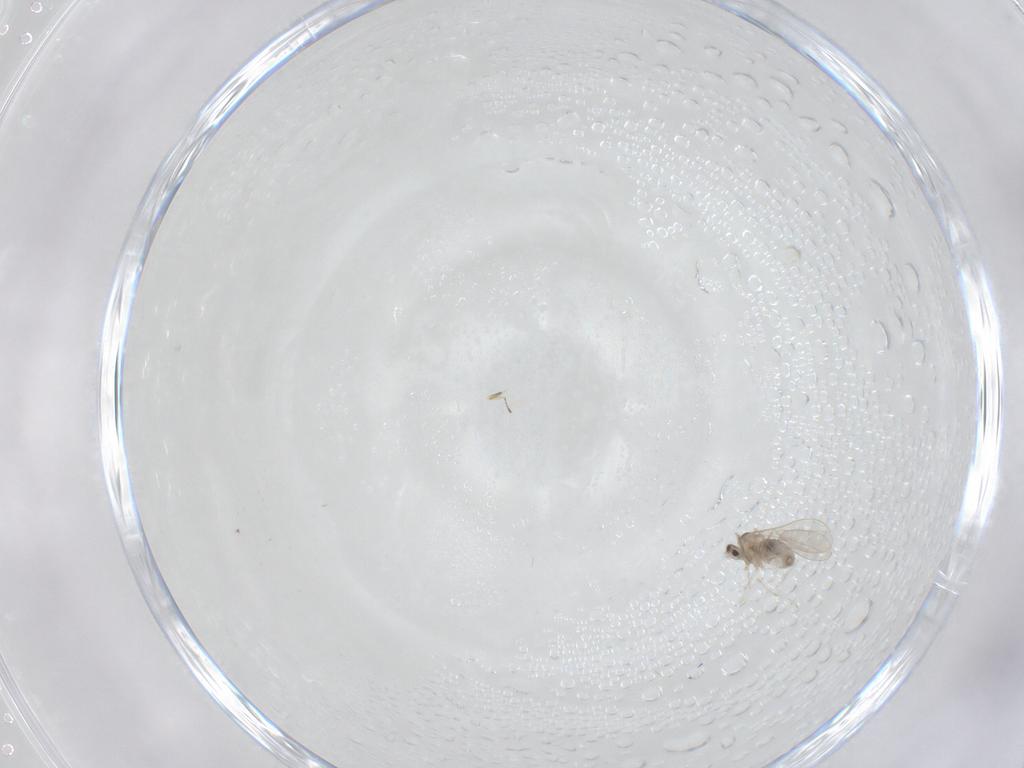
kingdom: Animalia
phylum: Arthropoda
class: Insecta
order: Diptera
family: Cecidomyiidae
